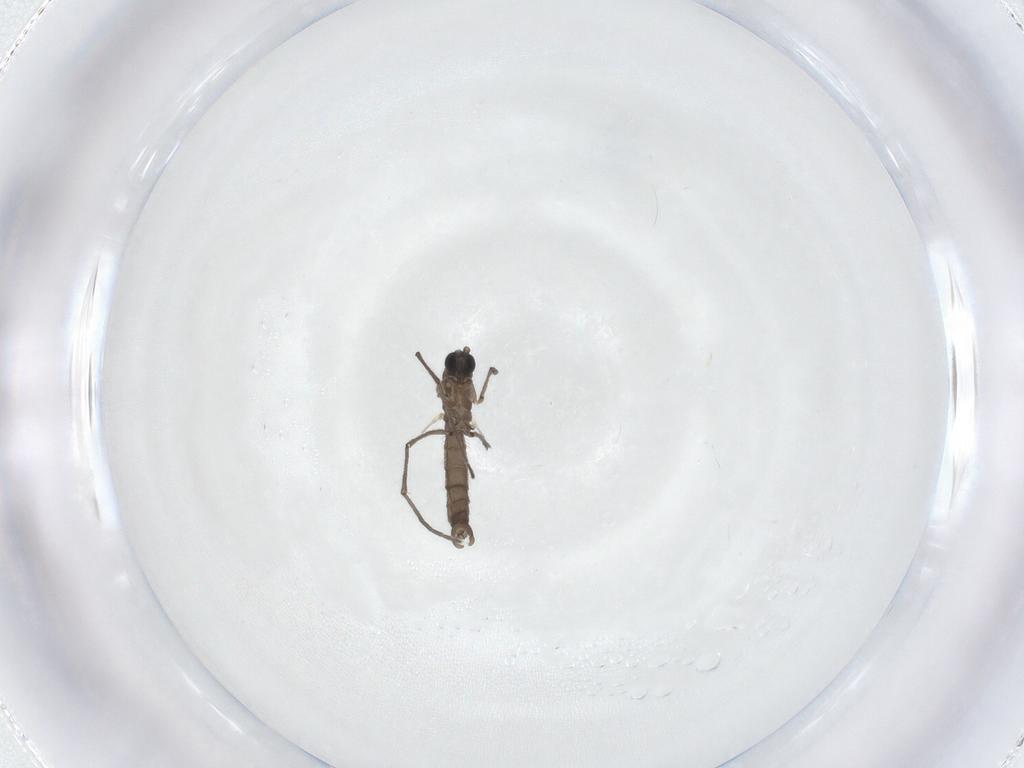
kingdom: Animalia
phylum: Arthropoda
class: Insecta
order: Diptera
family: Sciaridae
